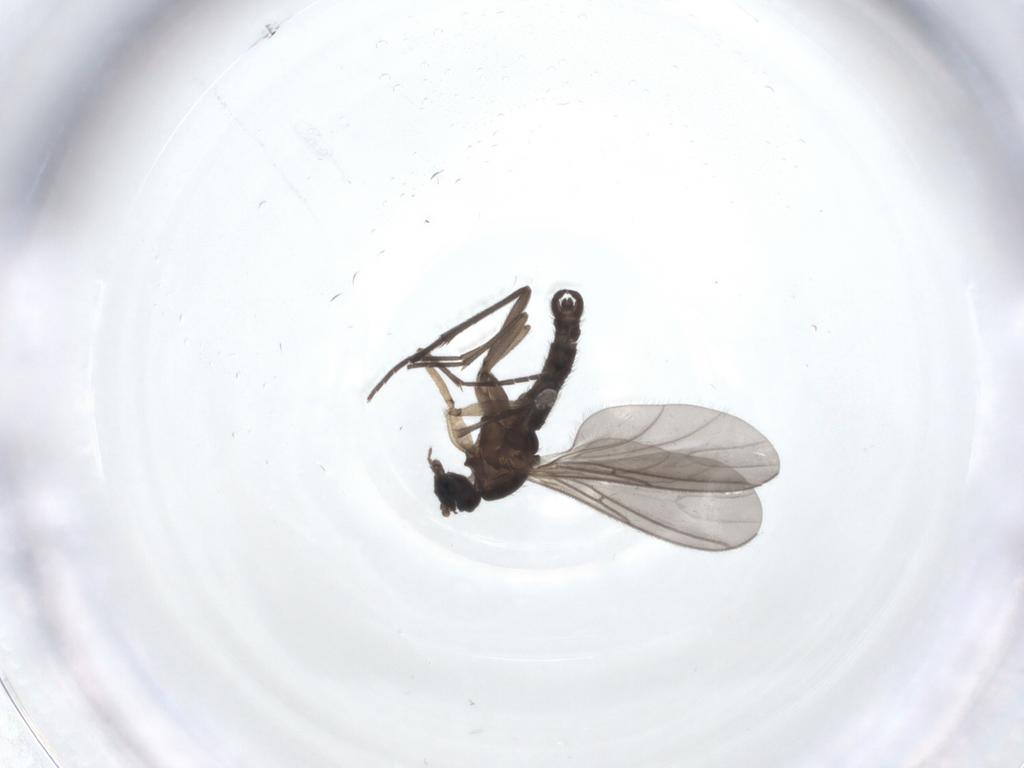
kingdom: Animalia
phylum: Arthropoda
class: Insecta
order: Diptera
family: Sciaridae
